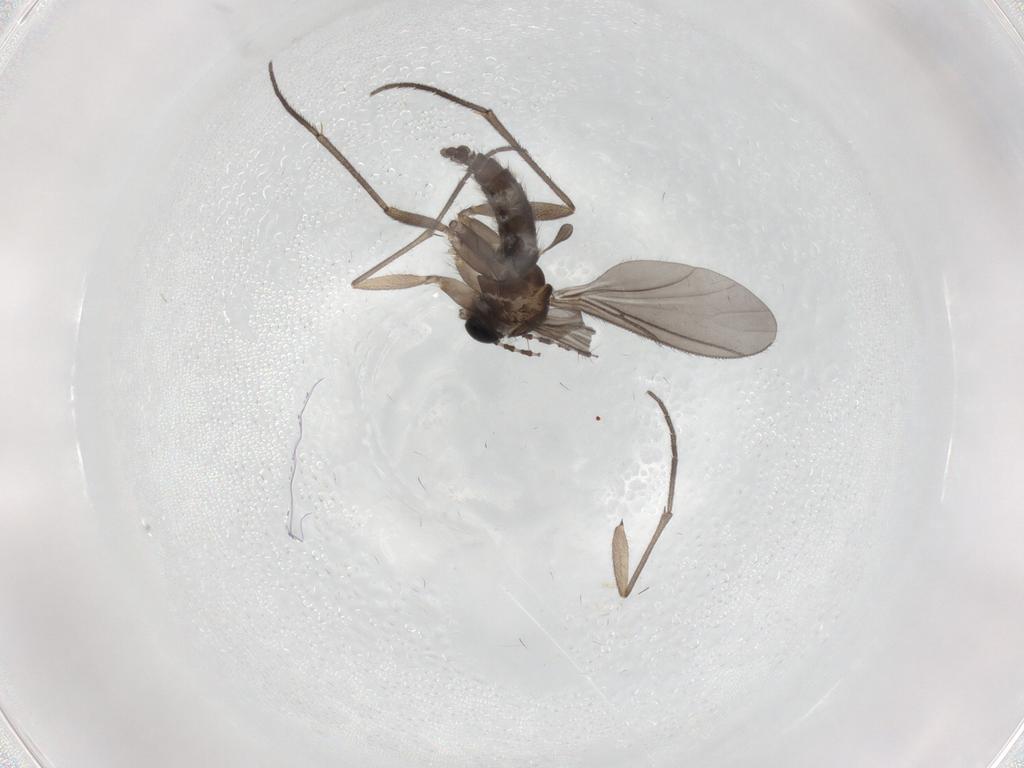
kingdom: Animalia
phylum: Arthropoda
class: Insecta
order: Diptera
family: Sciaridae
